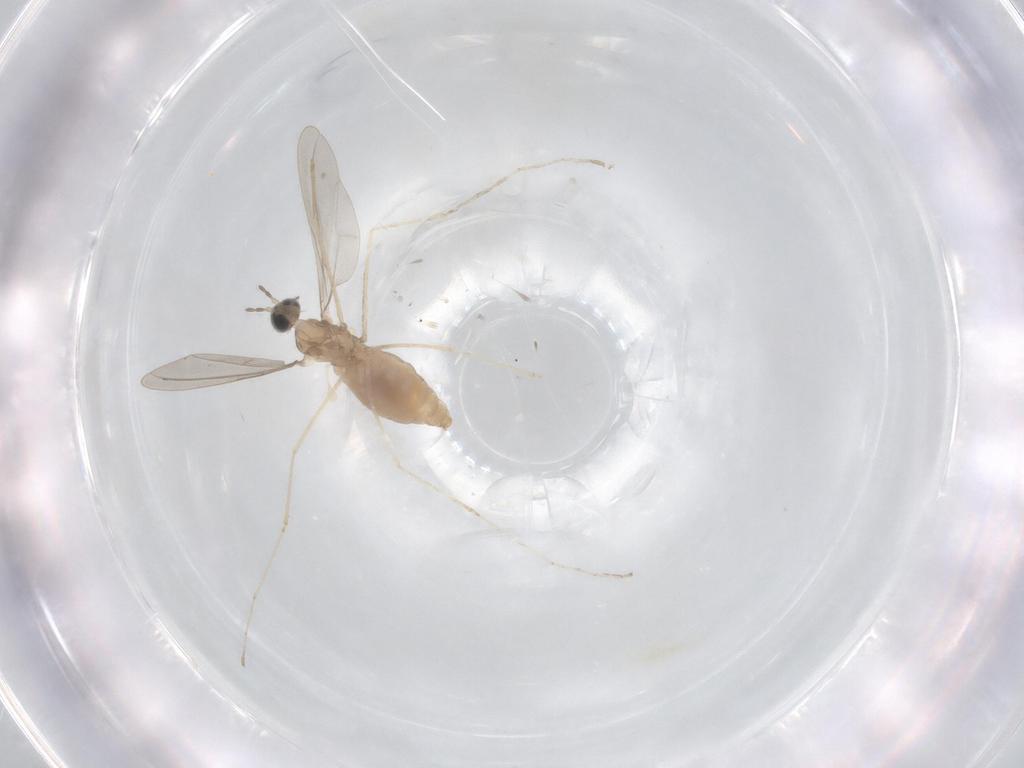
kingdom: Animalia
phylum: Arthropoda
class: Insecta
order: Diptera
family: Cecidomyiidae
